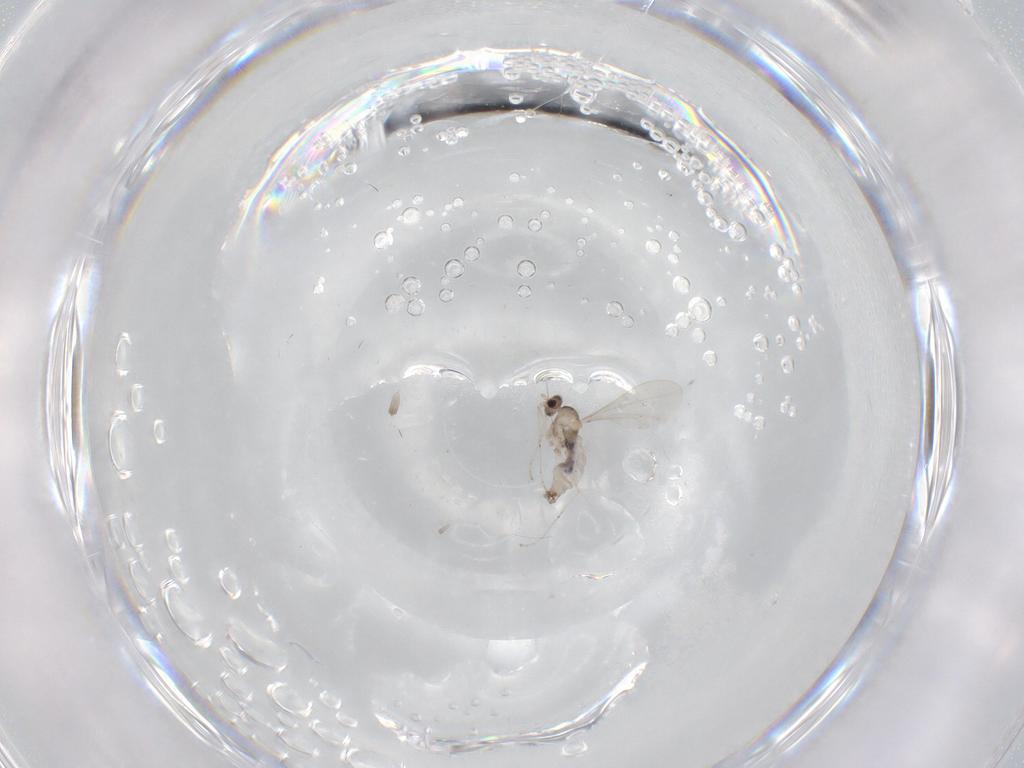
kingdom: Animalia
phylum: Arthropoda
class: Insecta
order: Diptera
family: Cecidomyiidae
